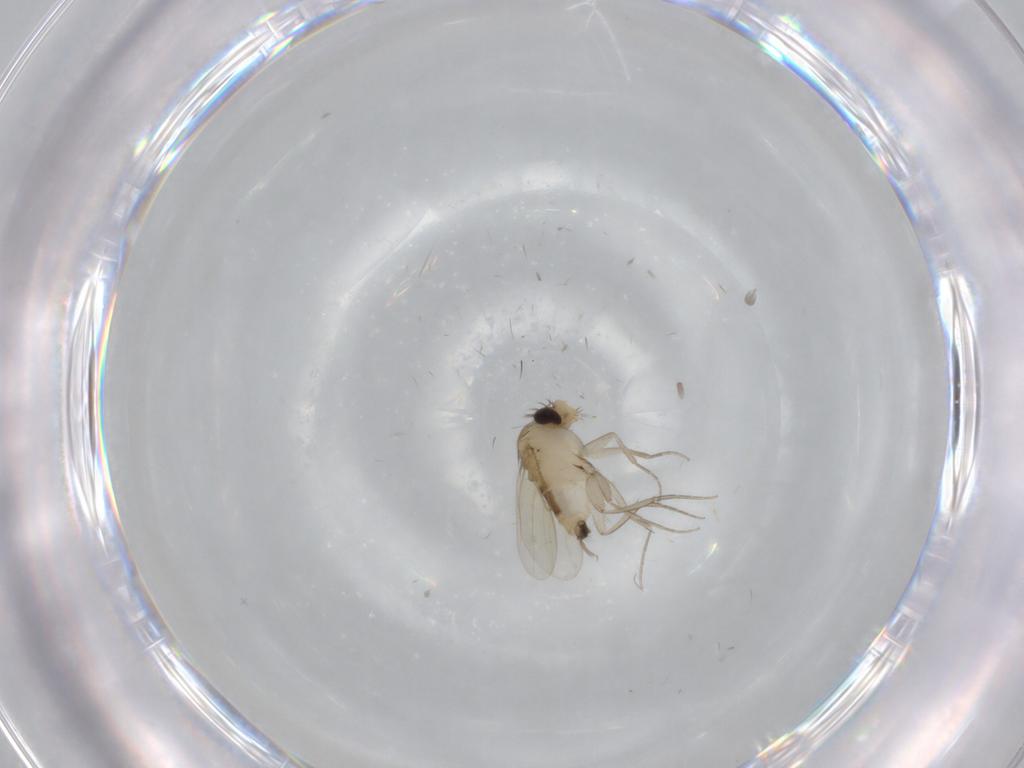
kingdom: Animalia
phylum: Arthropoda
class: Insecta
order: Diptera
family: Phoridae
